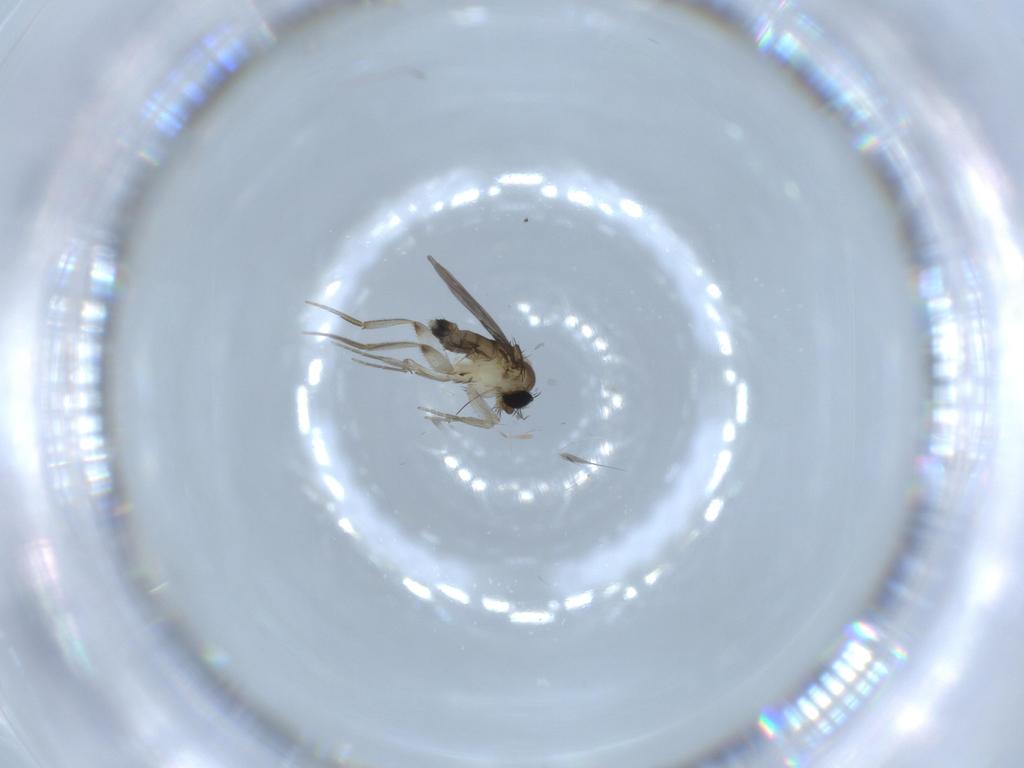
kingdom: Animalia
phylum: Arthropoda
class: Insecta
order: Diptera
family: Phoridae
